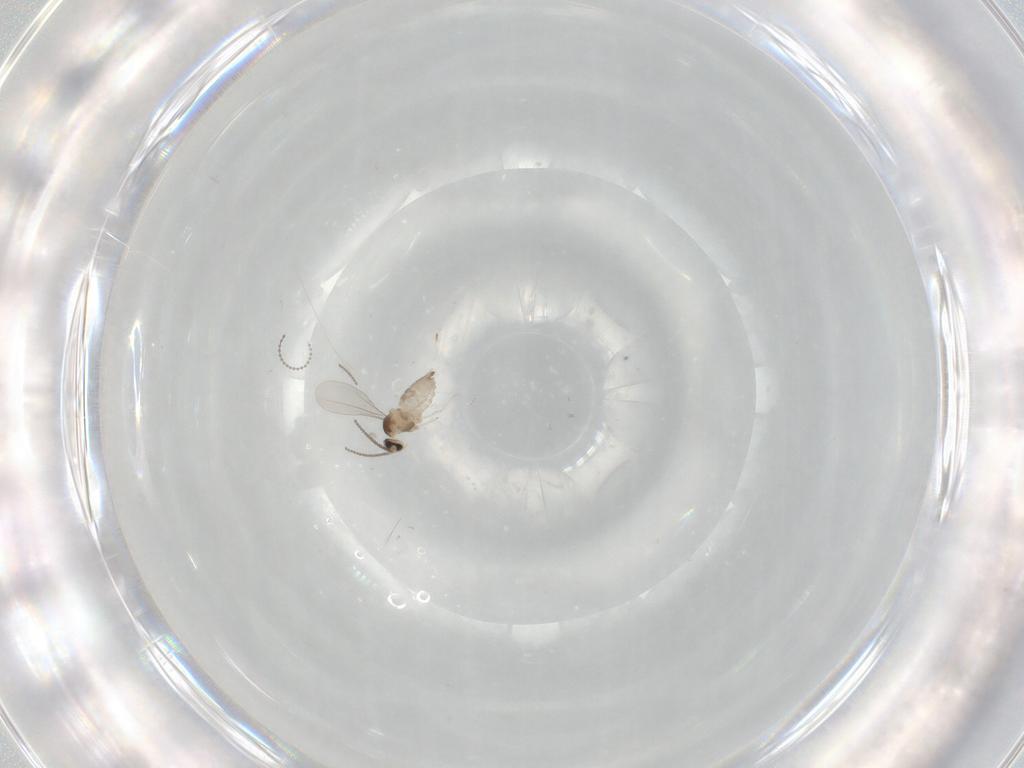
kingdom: Animalia
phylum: Arthropoda
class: Insecta
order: Diptera
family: Cecidomyiidae
